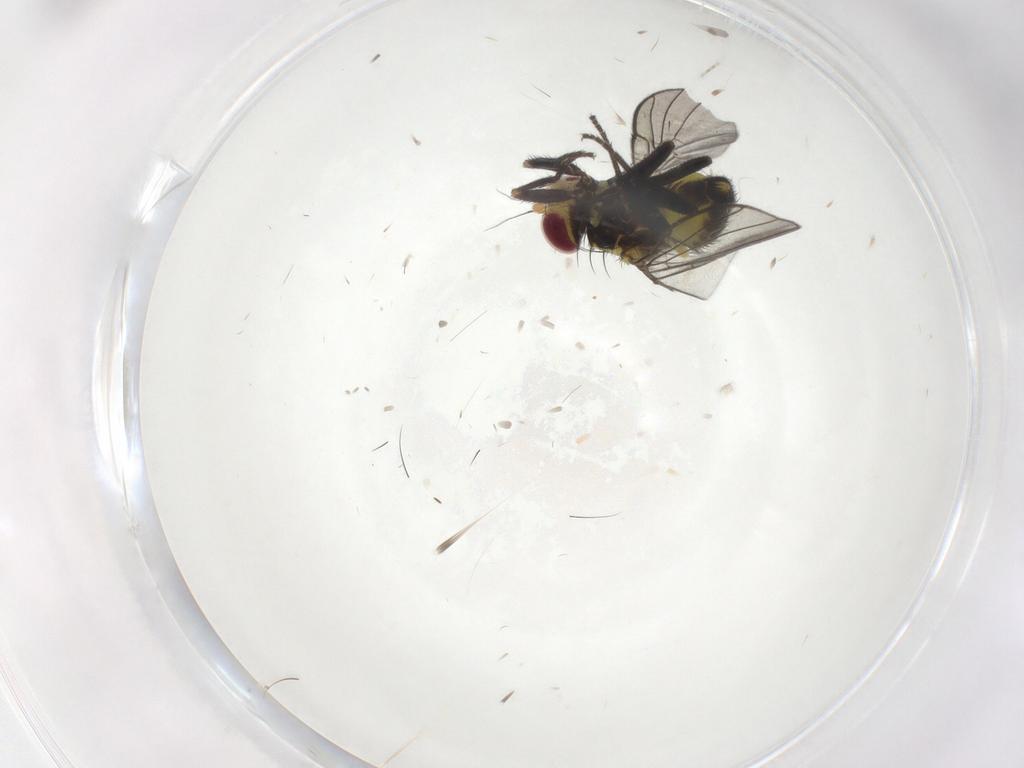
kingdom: Animalia
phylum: Arthropoda
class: Insecta
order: Diptera
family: Agromyzidae
